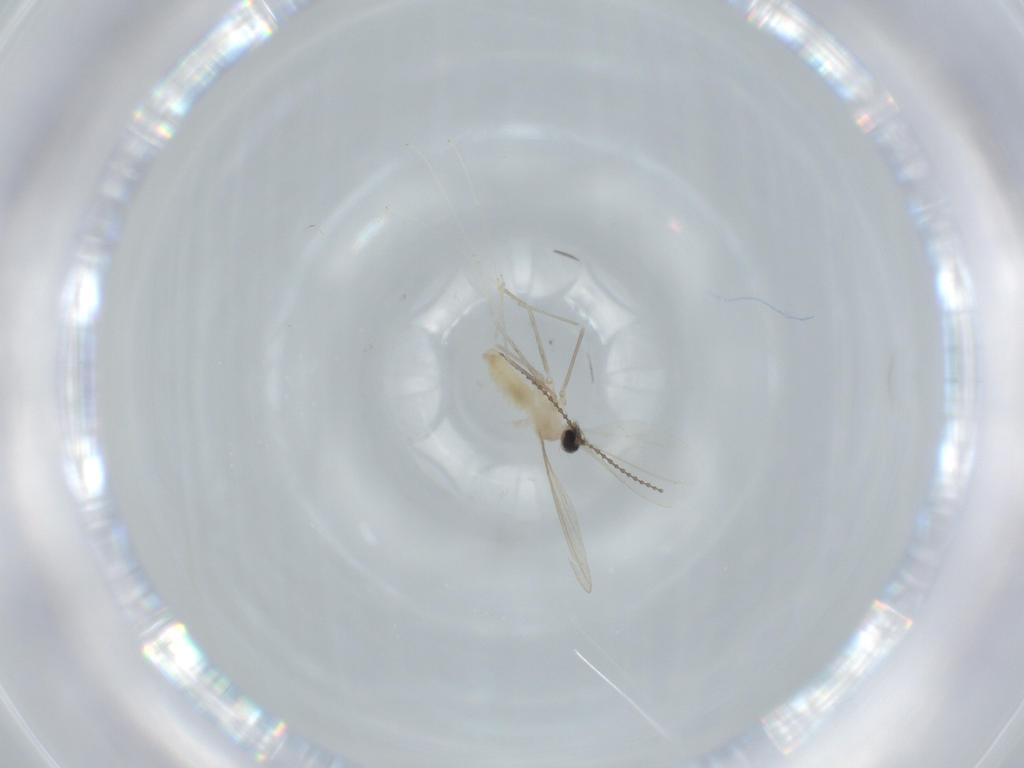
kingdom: Animalia
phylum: Arthropoda
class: Insecta
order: Diptera
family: Cecidomyiidae
